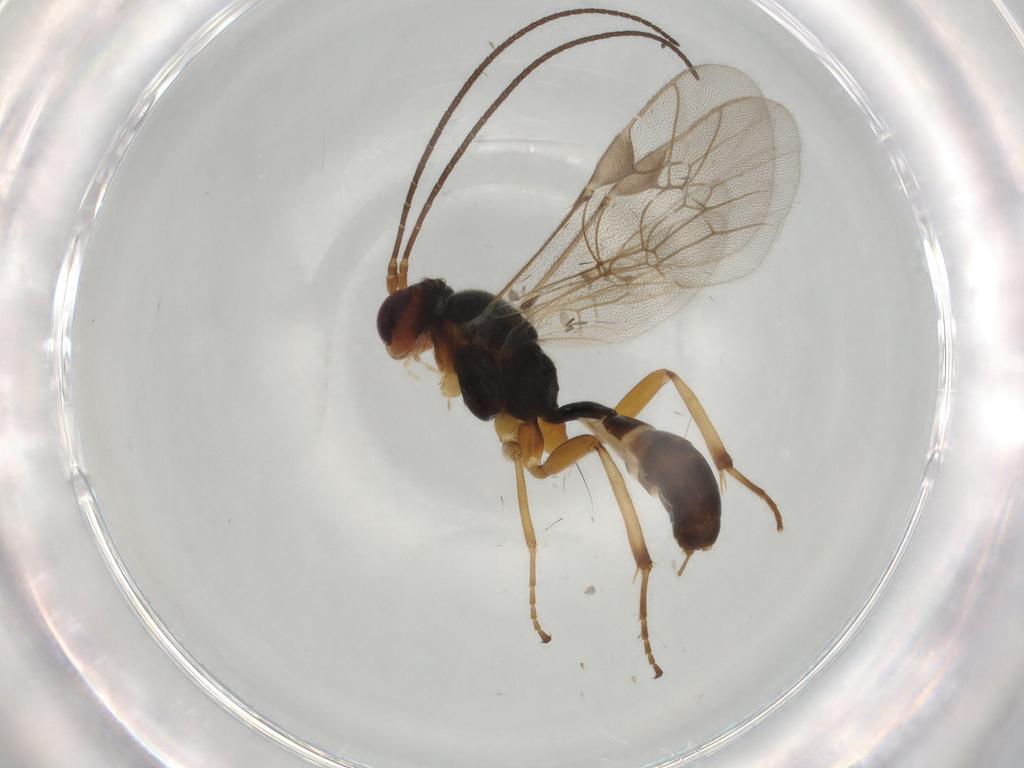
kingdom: Animalia
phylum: Arthropoda
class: Insecta
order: Hymenoptera
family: Ichneumonidae
